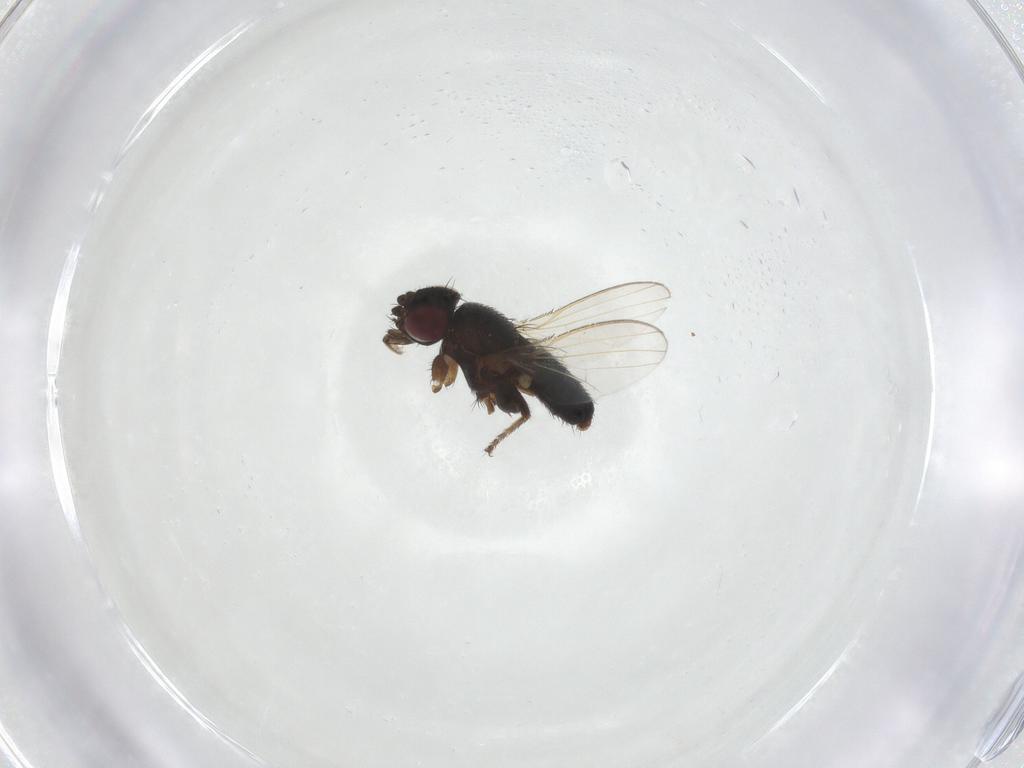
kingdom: Animalia
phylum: Arthropoda
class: Insecta
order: Diptera
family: Milichiidae
